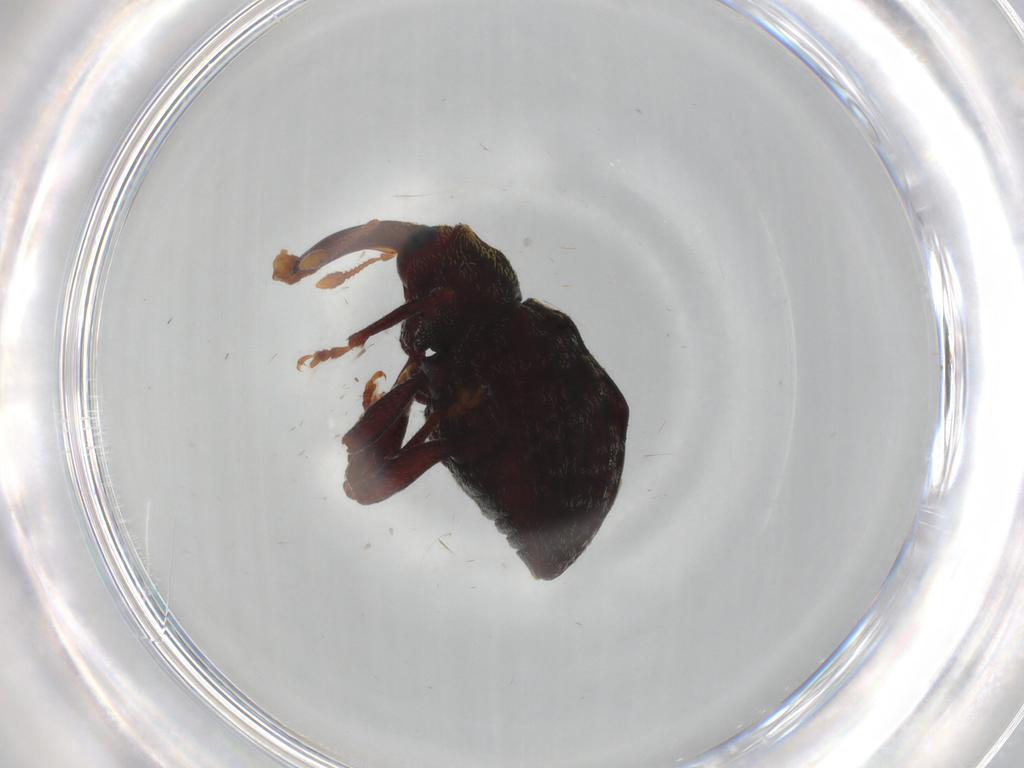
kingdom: Animalia
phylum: Arthropoda
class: Insecta
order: Coleoptera
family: Curculionidae
